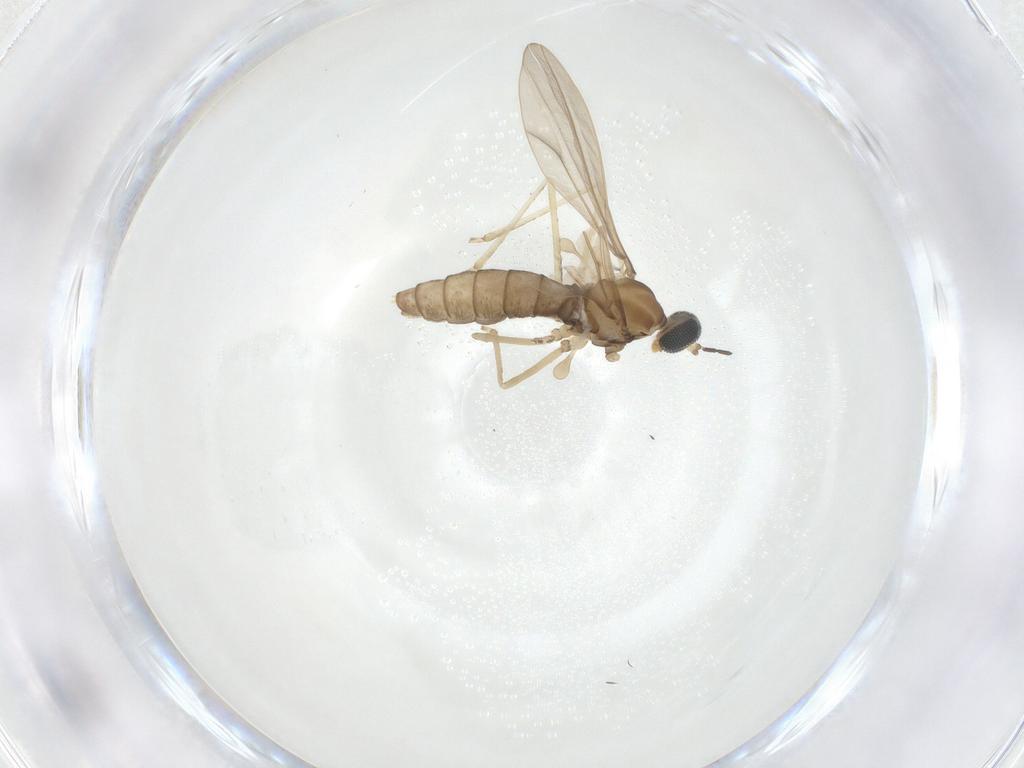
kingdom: Animalia
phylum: Arthropoda
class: Insecta
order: Diptera
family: Cecidomyiidae
